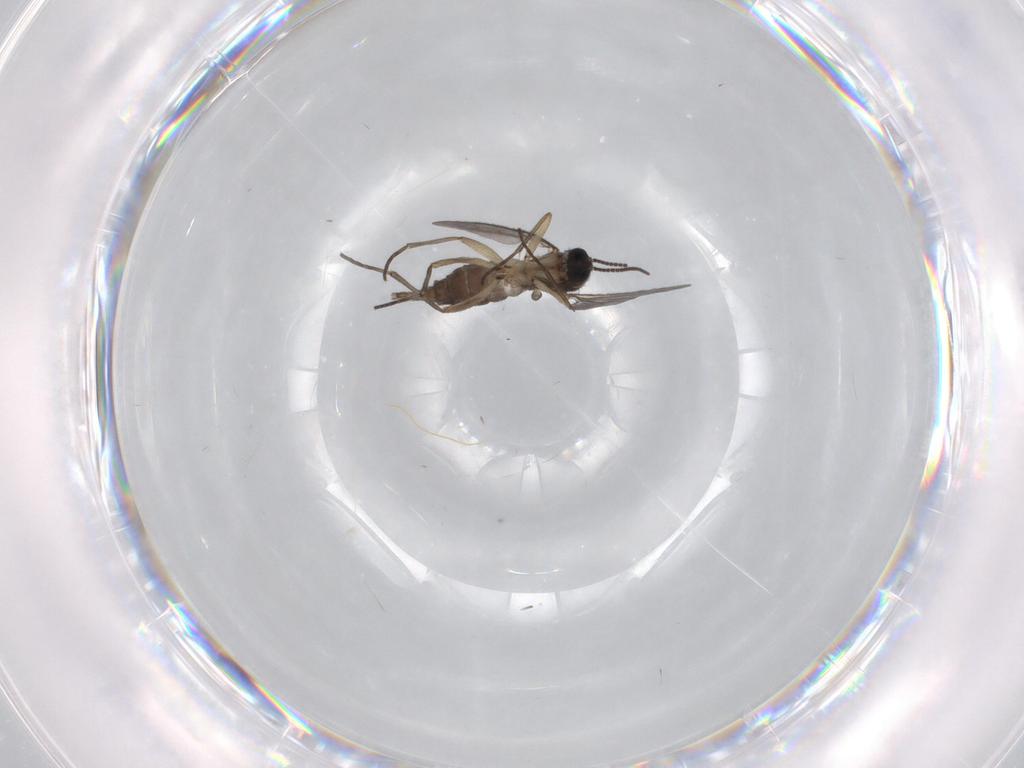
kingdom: Animalia
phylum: Arthropoda
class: Insecta
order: Diptera
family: Sciaridae
